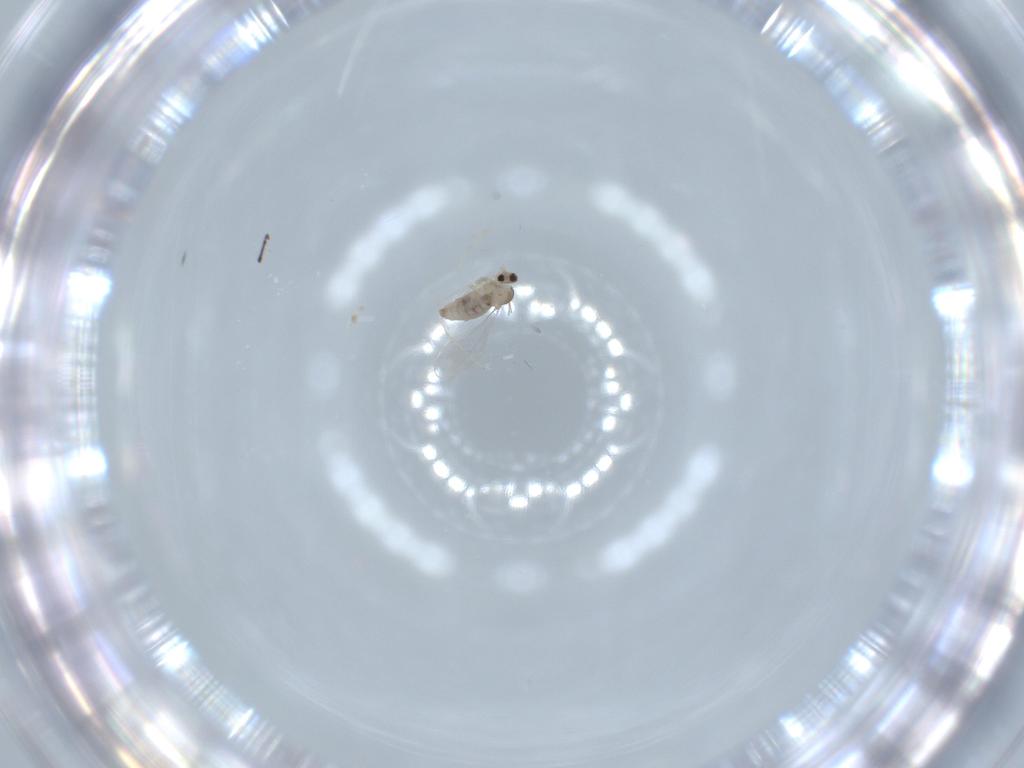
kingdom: Animalia
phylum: Arthropoda
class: Insecta
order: Diptera
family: Cecidomyiidae
